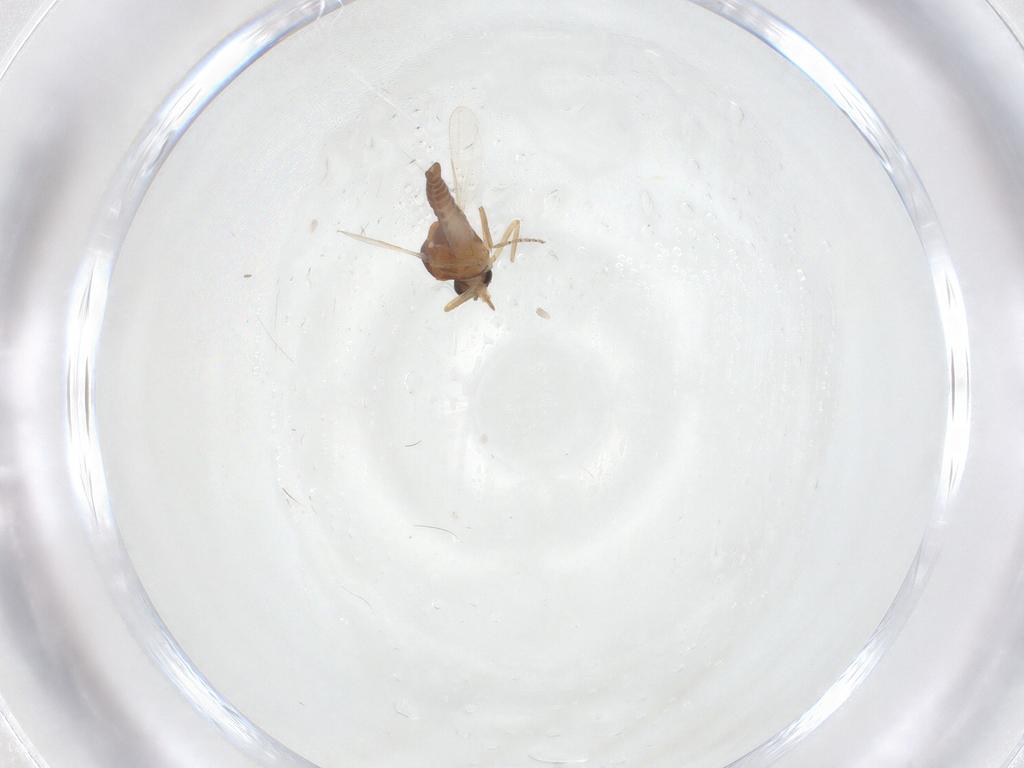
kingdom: Animalia
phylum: Arthropoda
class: Insecta
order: Diptera
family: Ceratopogonidae
